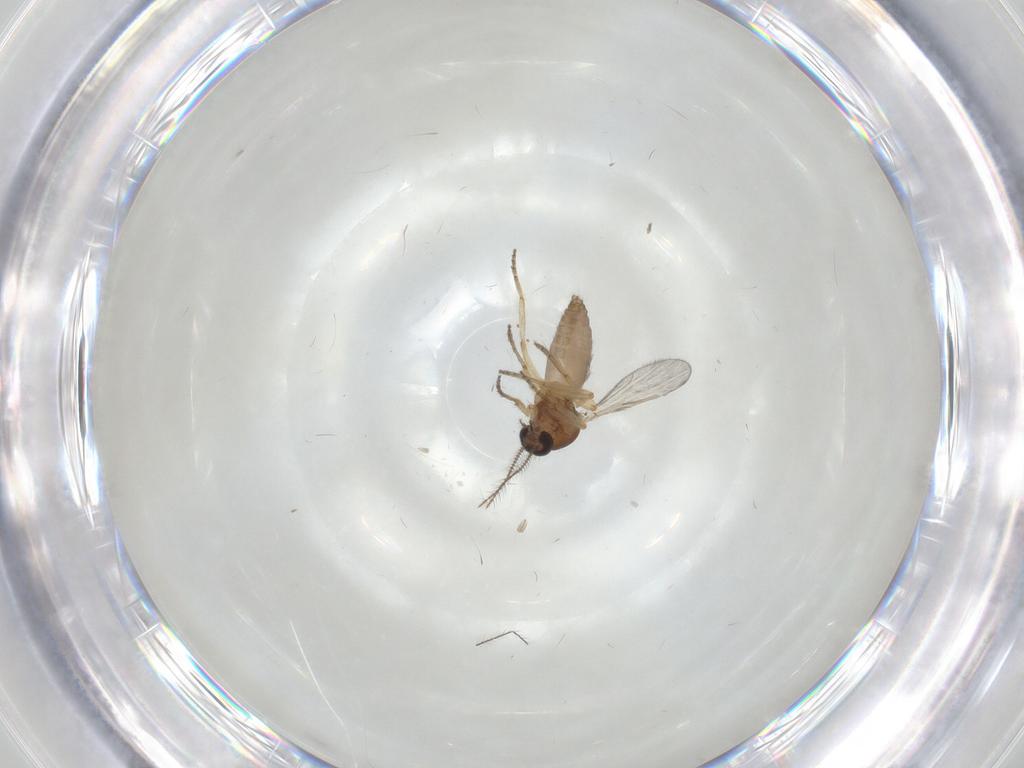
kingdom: Animalia
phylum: Arthropoda
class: Insecta
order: Diptera
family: Ceratopogonidae
